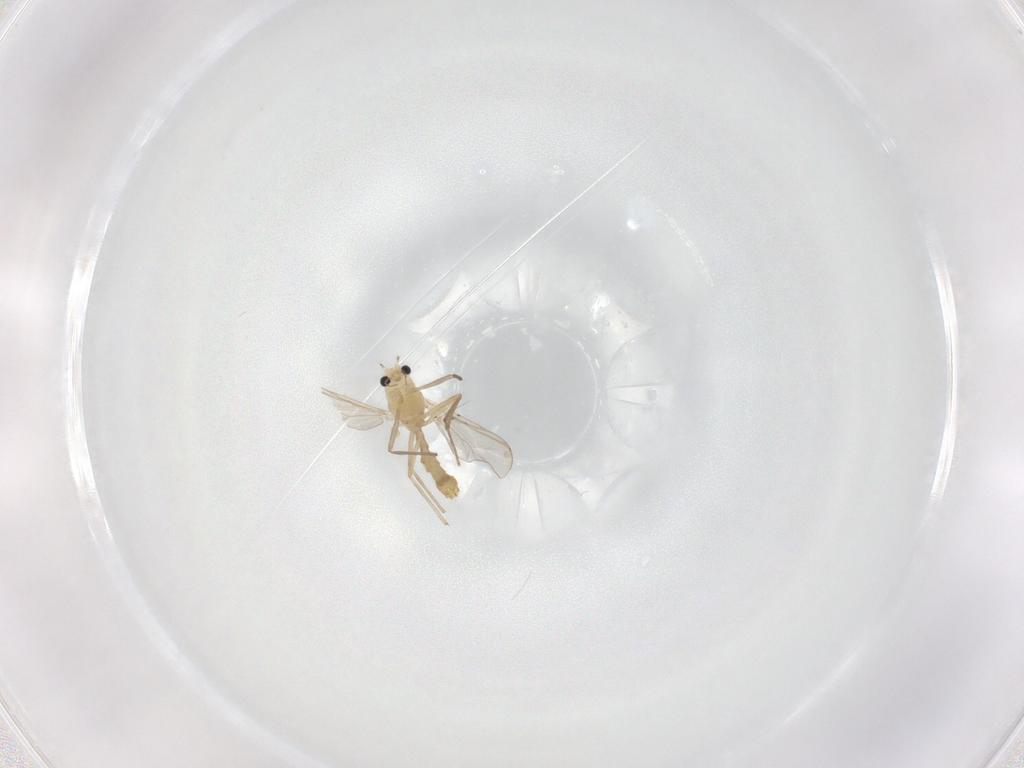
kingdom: Animalia
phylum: Arthropoda
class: Insecta
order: Diptera
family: Chironomidae
